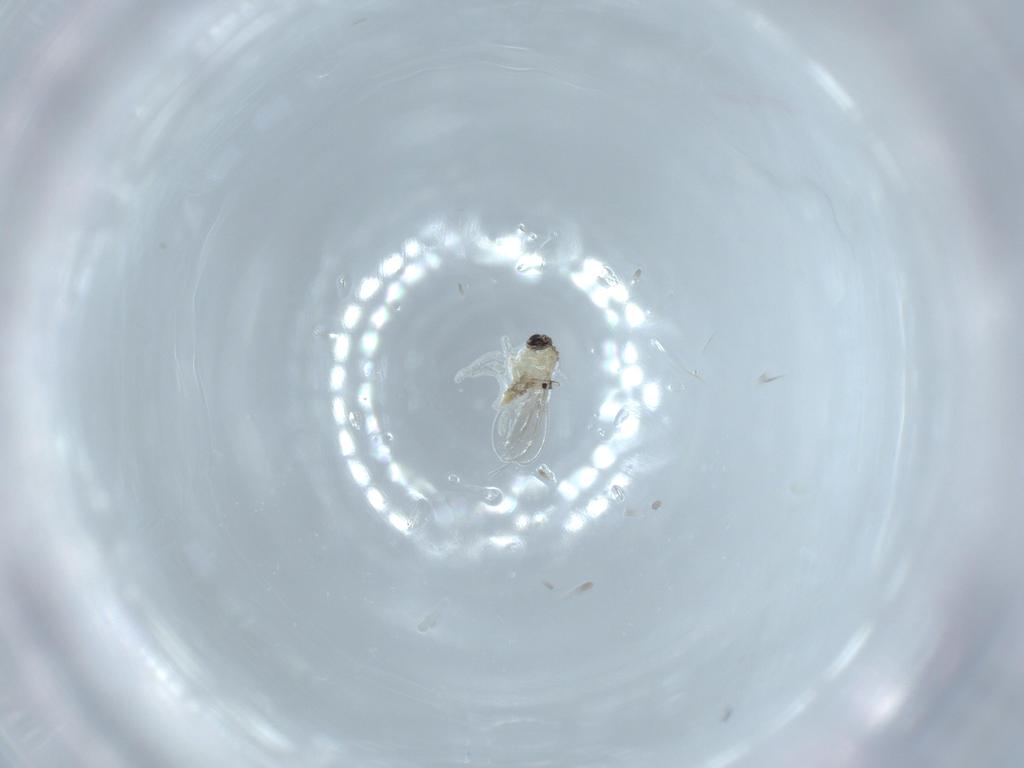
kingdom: Animalia
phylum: Arthropoda
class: Insecta
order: Diptera
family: Cecidomyiidae
